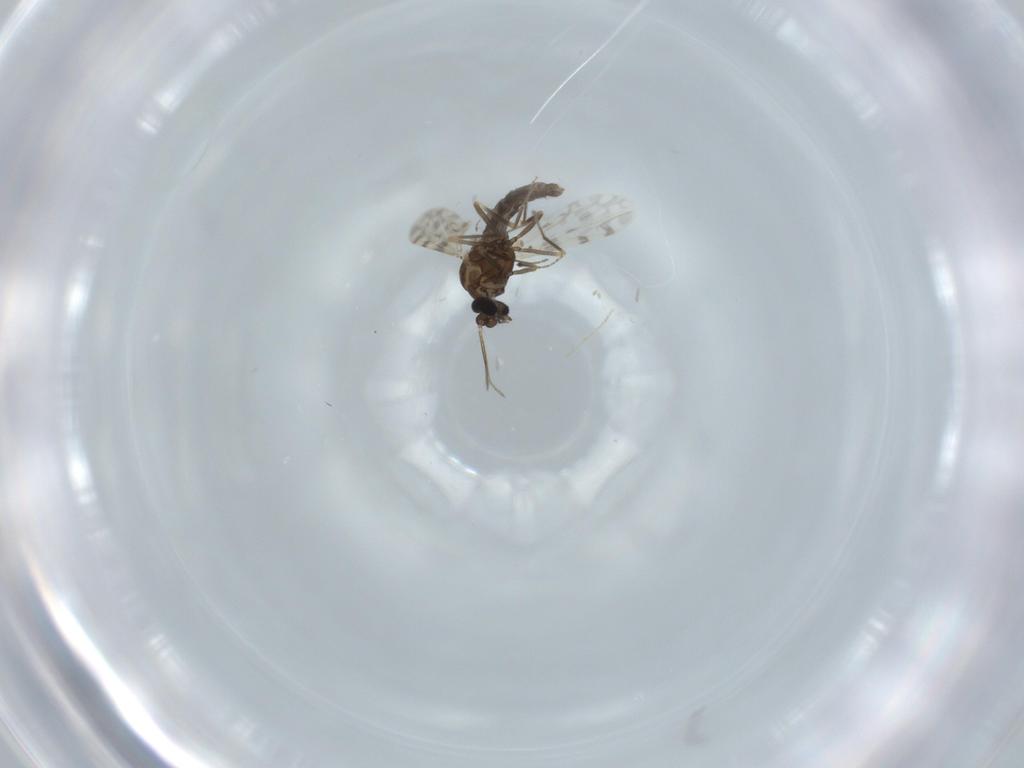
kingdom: Animalia
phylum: Arthropoda
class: Insecta
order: Diptera
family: Ceratopogonidae
